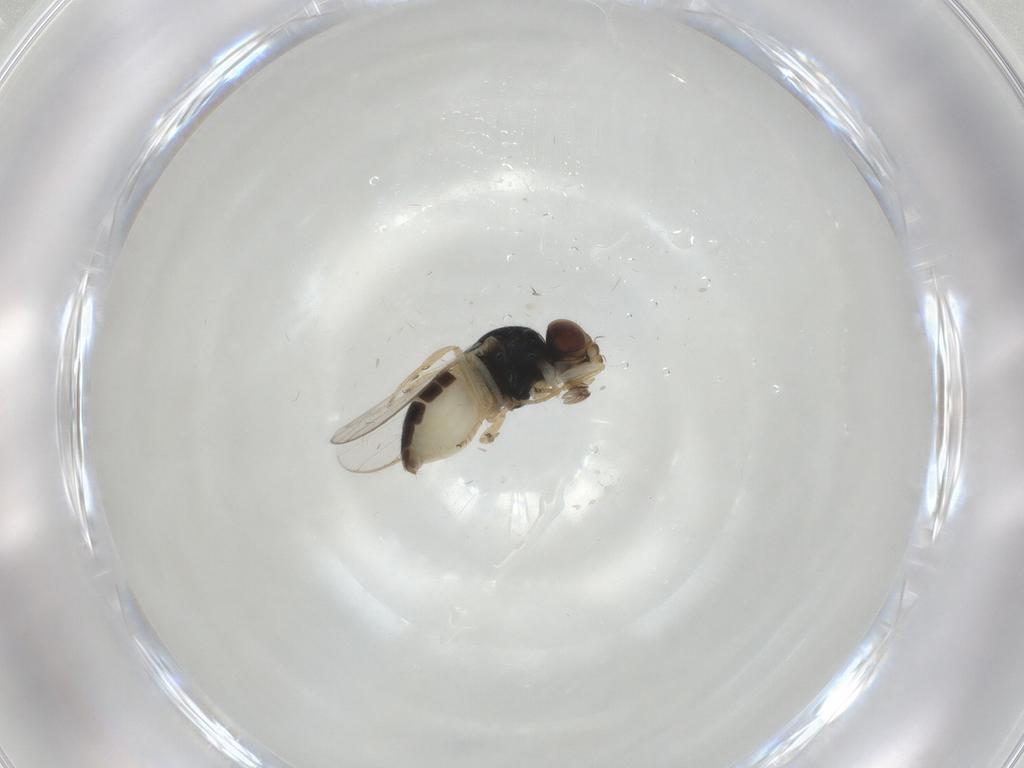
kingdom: Animalia
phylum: Arthropoda
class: Insecta
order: Diptera
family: Chloropidae
